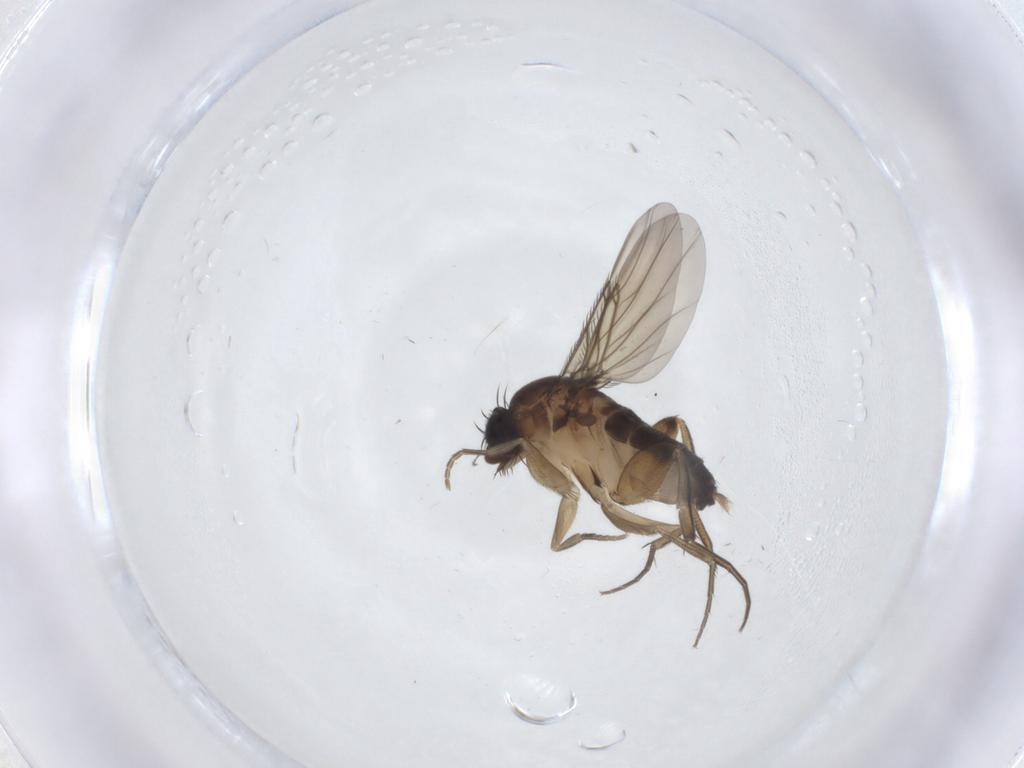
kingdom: Animalia
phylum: Arthropoda
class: Insecta
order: Diptera
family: Phoridae
